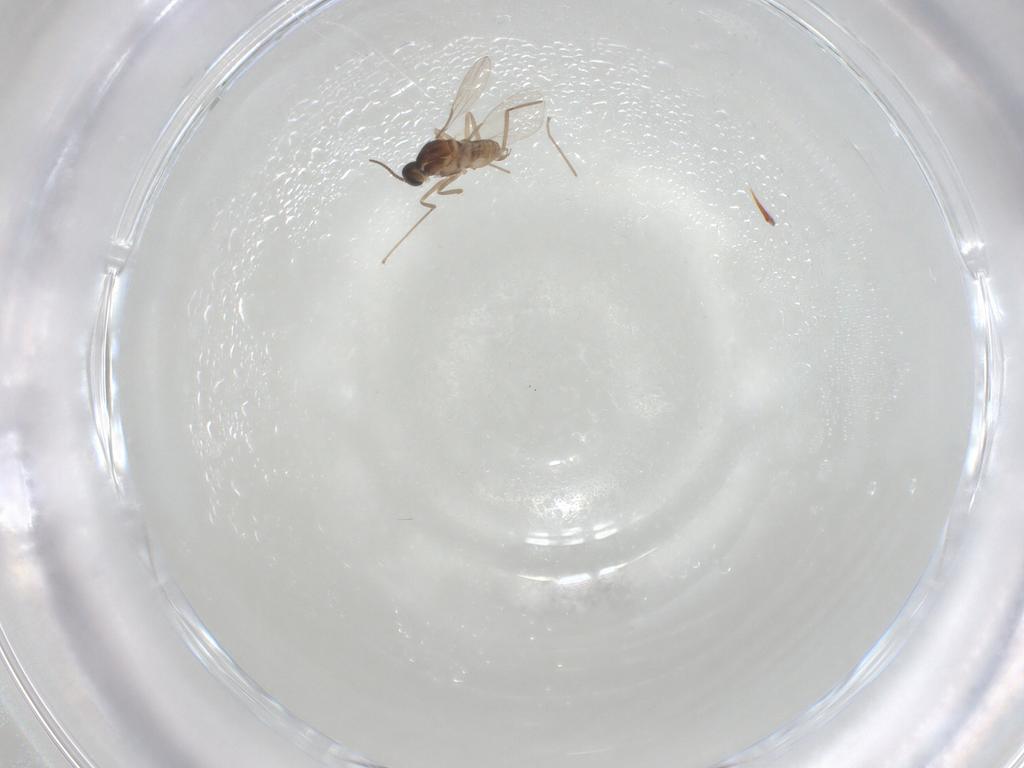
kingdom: Animalia
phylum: Arthropoda
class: Insecta
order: Diptera
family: Cecidomyiidae
